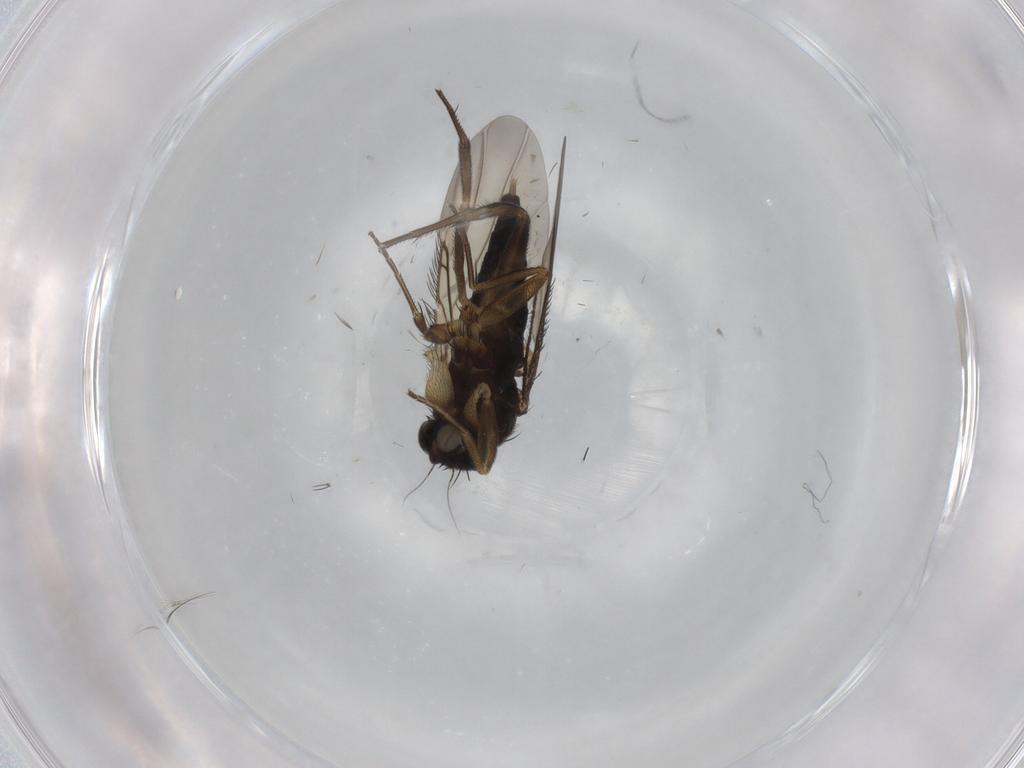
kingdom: Animalia
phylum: Arthropoda
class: Insecta
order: Diptera
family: Phoridae
